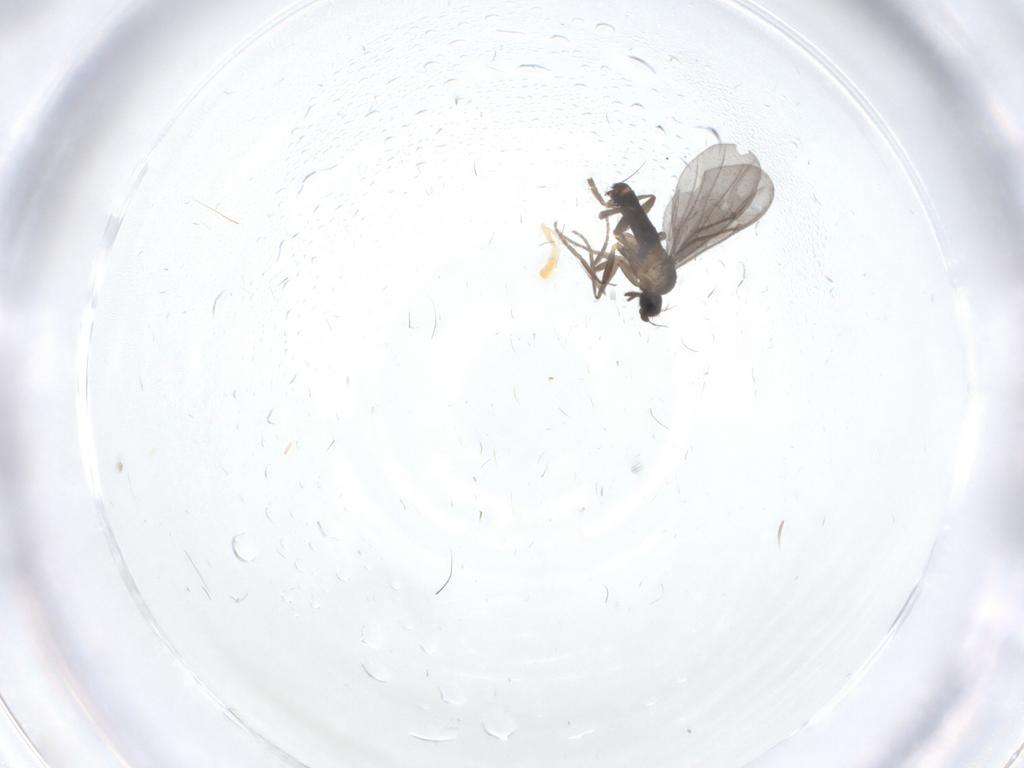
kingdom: Animalia
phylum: Arthropoda
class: Insecta
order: Diptera
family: Phoridae
